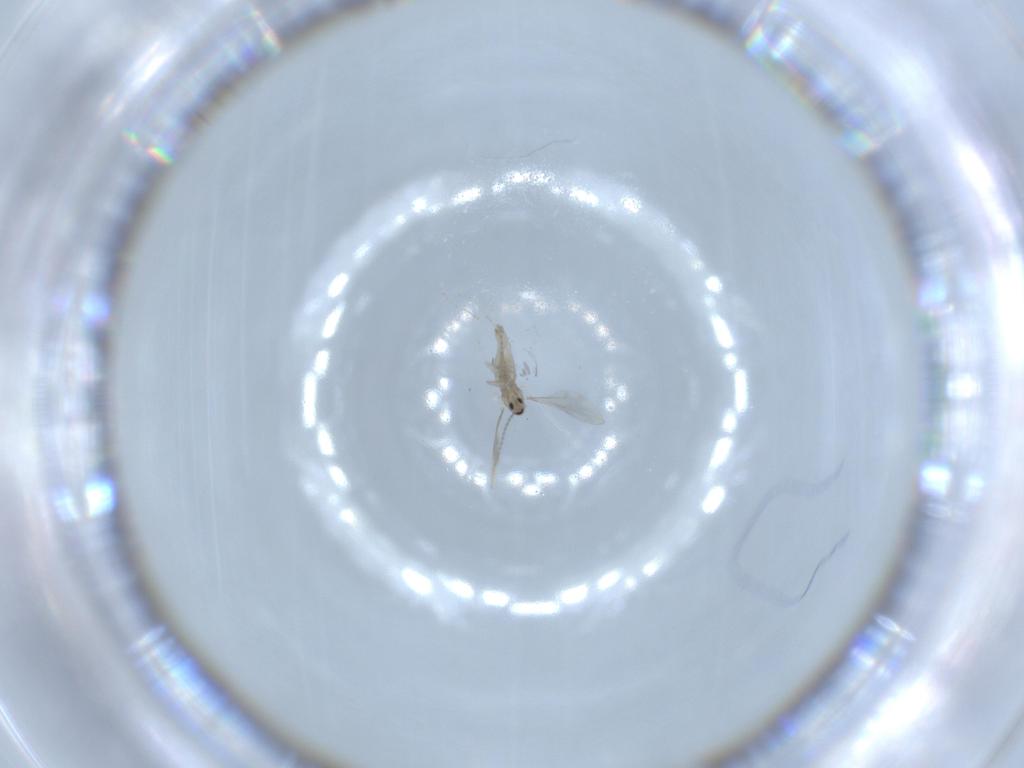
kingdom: Animalia
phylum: Arthropoda
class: Insecta
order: Diptera
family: Cecidomyiidae
